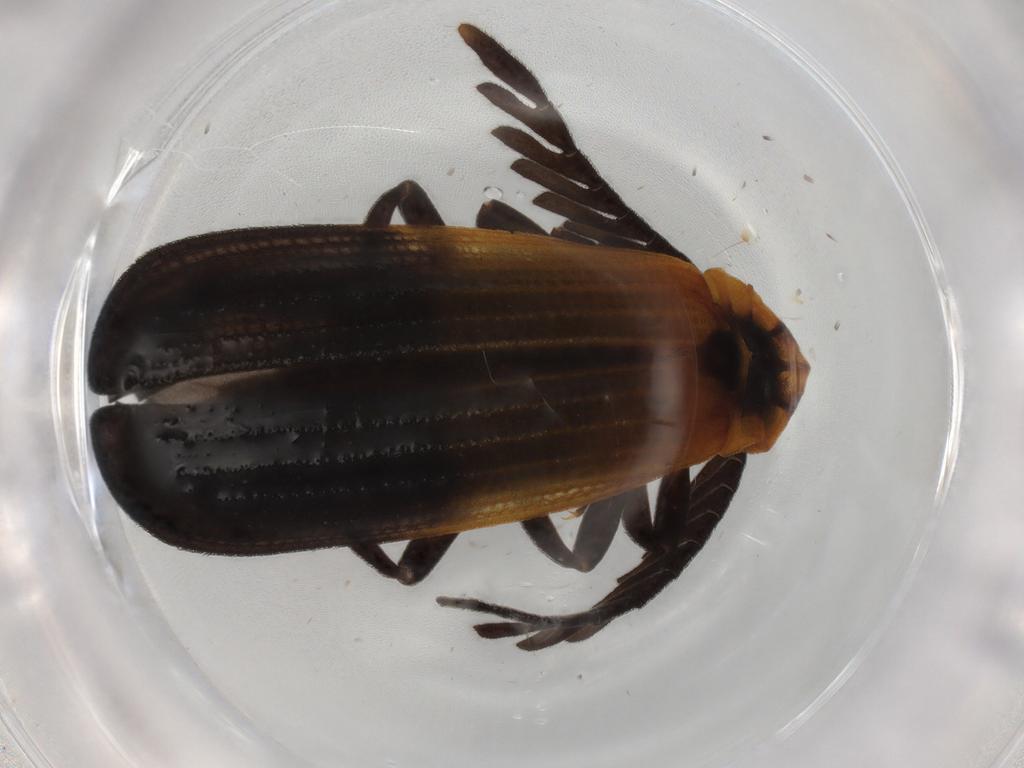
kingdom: Animalia
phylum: Arthropoda
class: Insecta
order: Coleoptera
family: Lycidae
